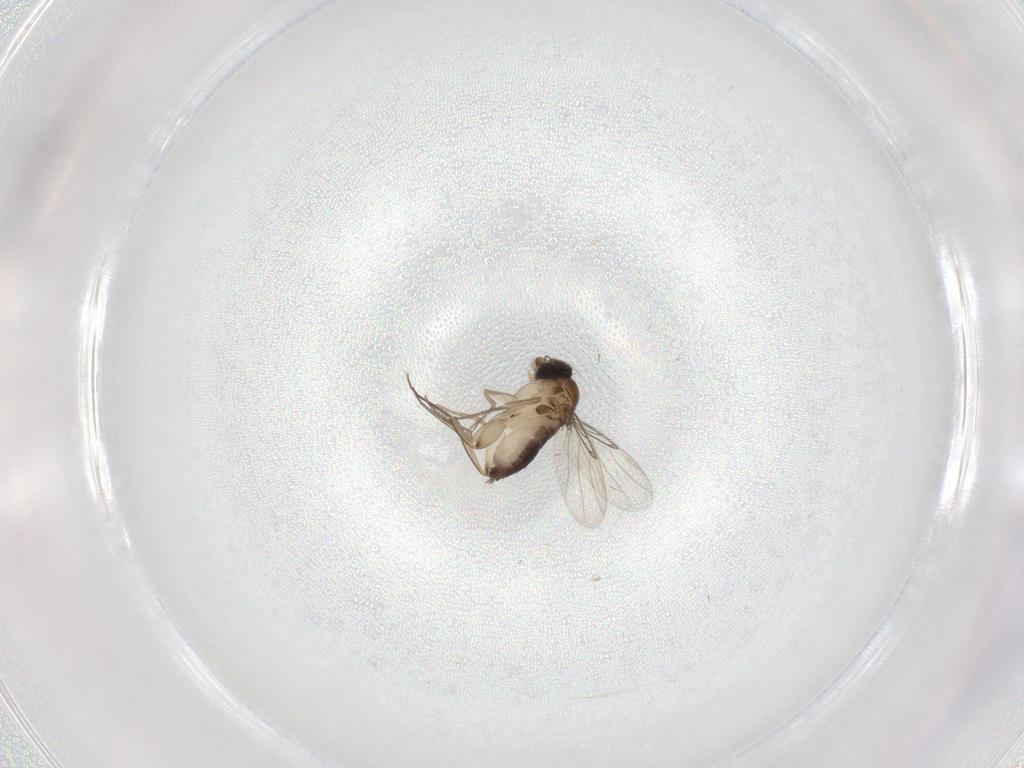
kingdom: Animalia
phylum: Arthropoda
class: Insecta
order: Diptera
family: Phoridae
